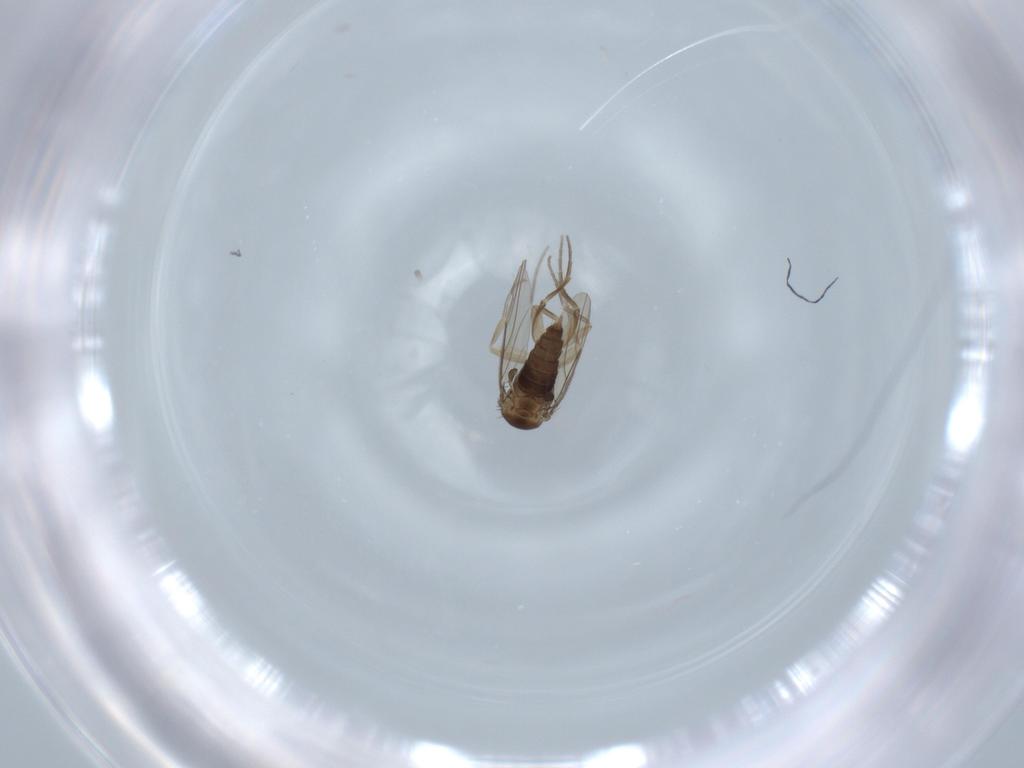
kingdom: Animalia
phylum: Arthropoda
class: Insecta
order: Diptera
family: Phoridae
